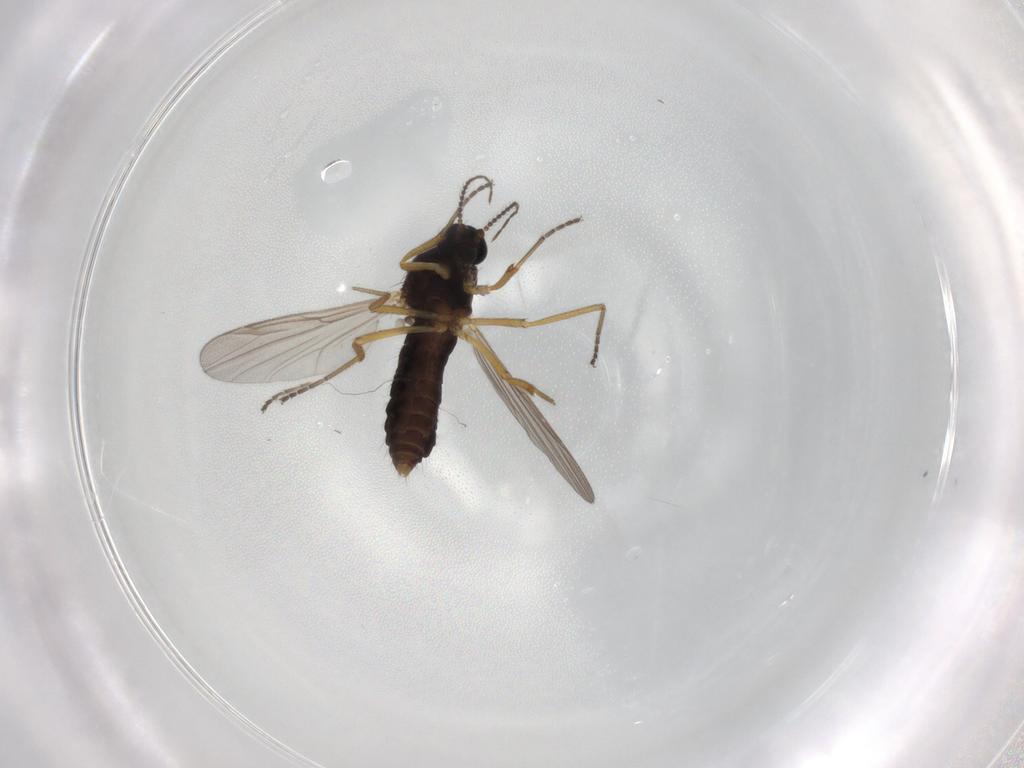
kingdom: Animalia
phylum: Arthropoda
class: Insecta
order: Diptera
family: Ceratopogonidae
